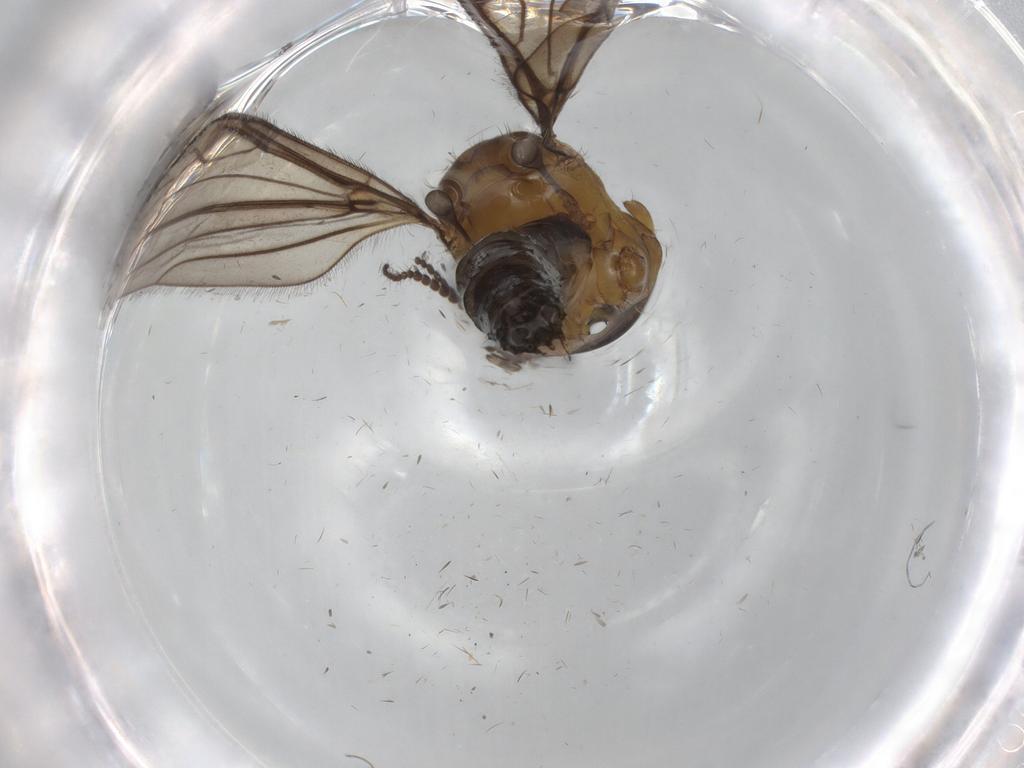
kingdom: Animalia
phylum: Arthropoda
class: Insecta
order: Diptera
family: Limoniidae
